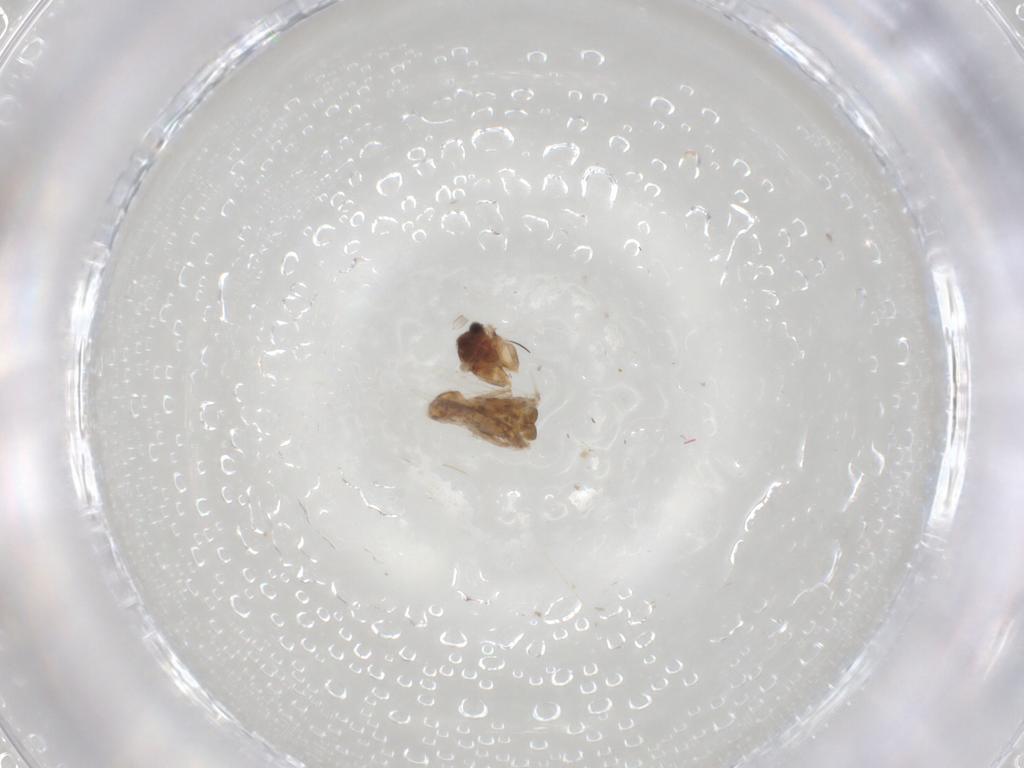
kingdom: Animalia
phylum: Arthropoda
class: Insecta
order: Lepidoptera
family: Nepticulidae
